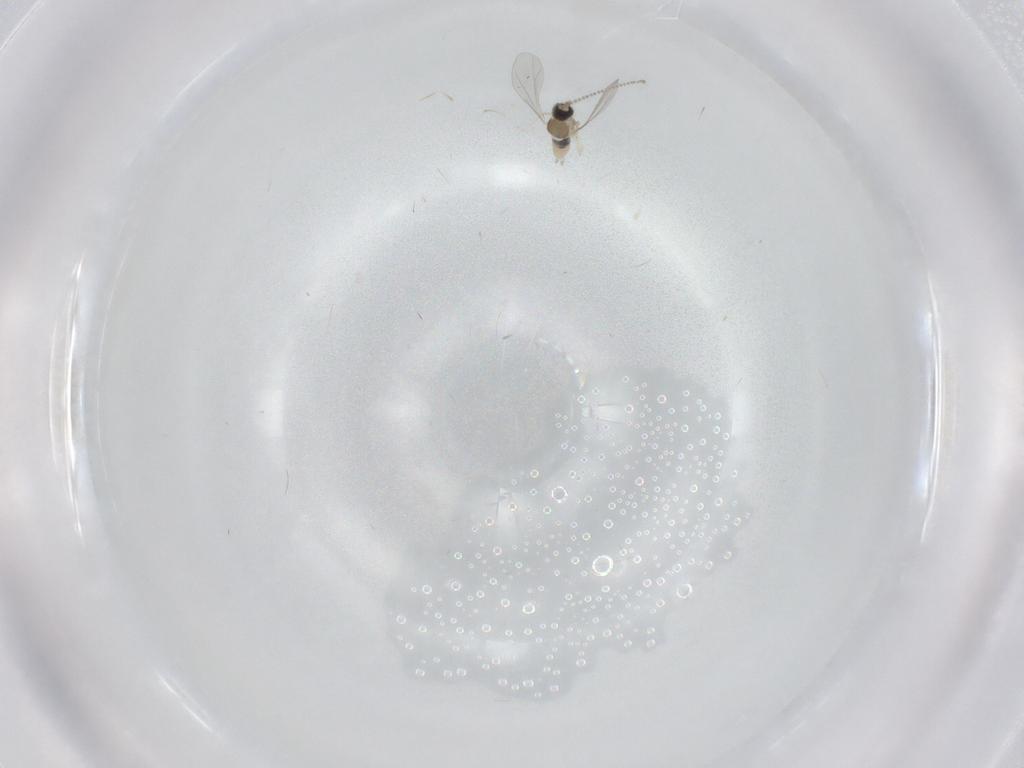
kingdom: Animalia
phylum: Arthropoda
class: Insecta
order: Diptera
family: Cecidomyiidae
